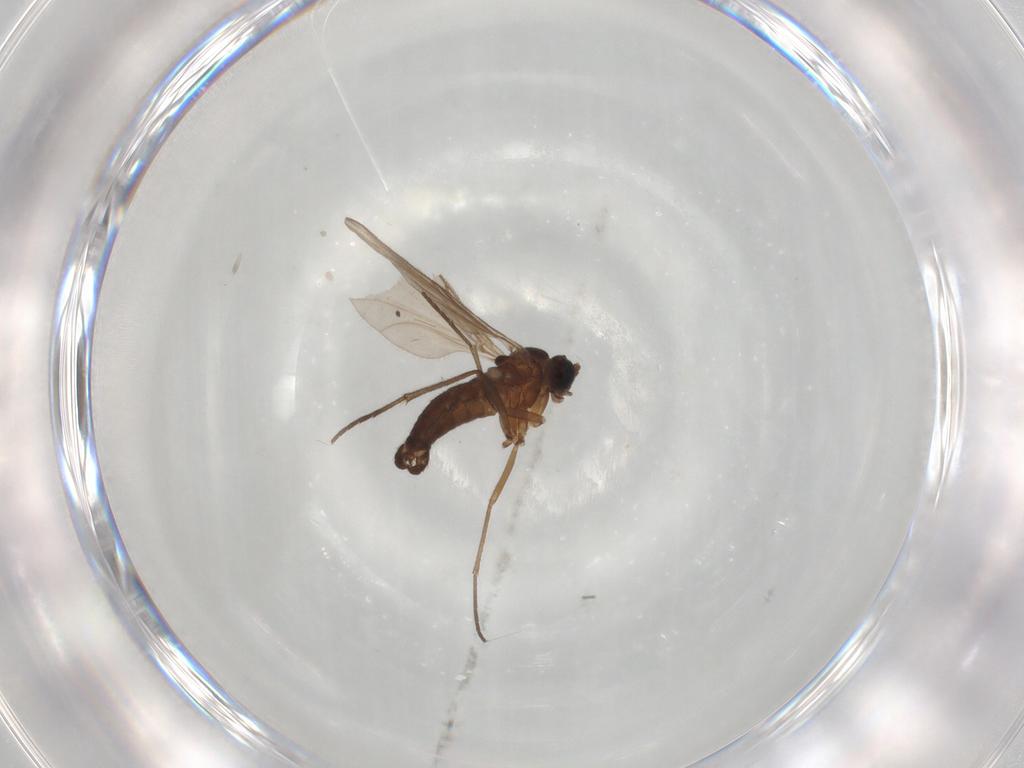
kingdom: Animalia
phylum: Arthropoda
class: Insecta
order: Diptera
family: Sciaridae
